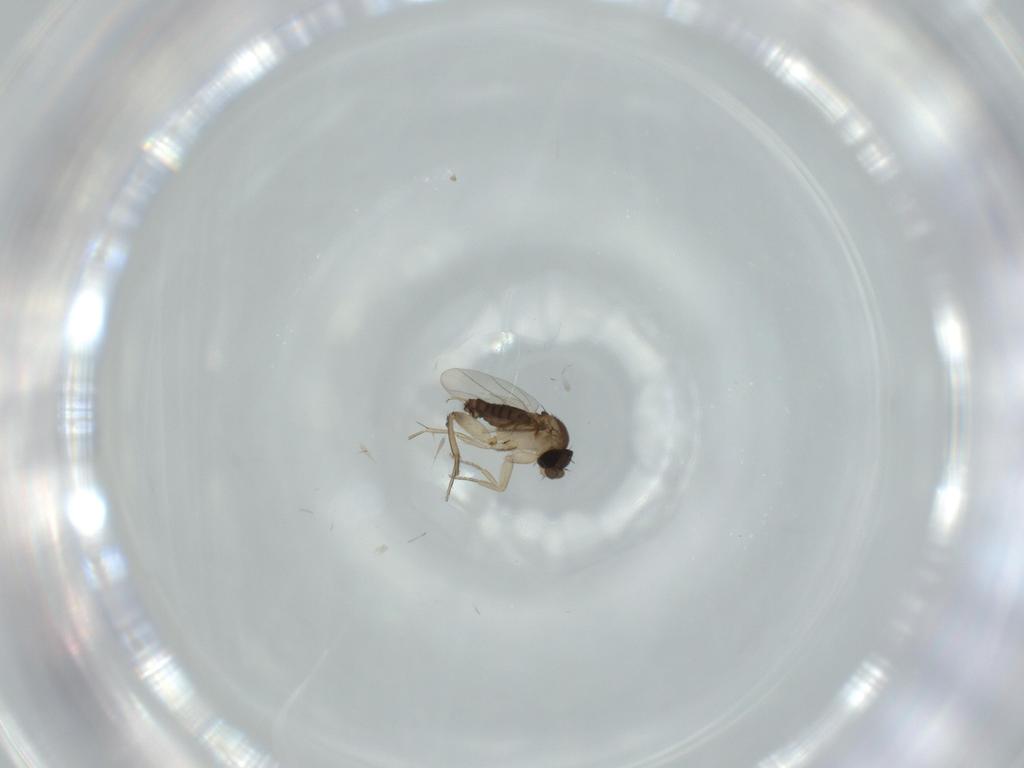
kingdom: Animalia
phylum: Arthropoda
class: Insecta
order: Diptera
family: Phoridae
